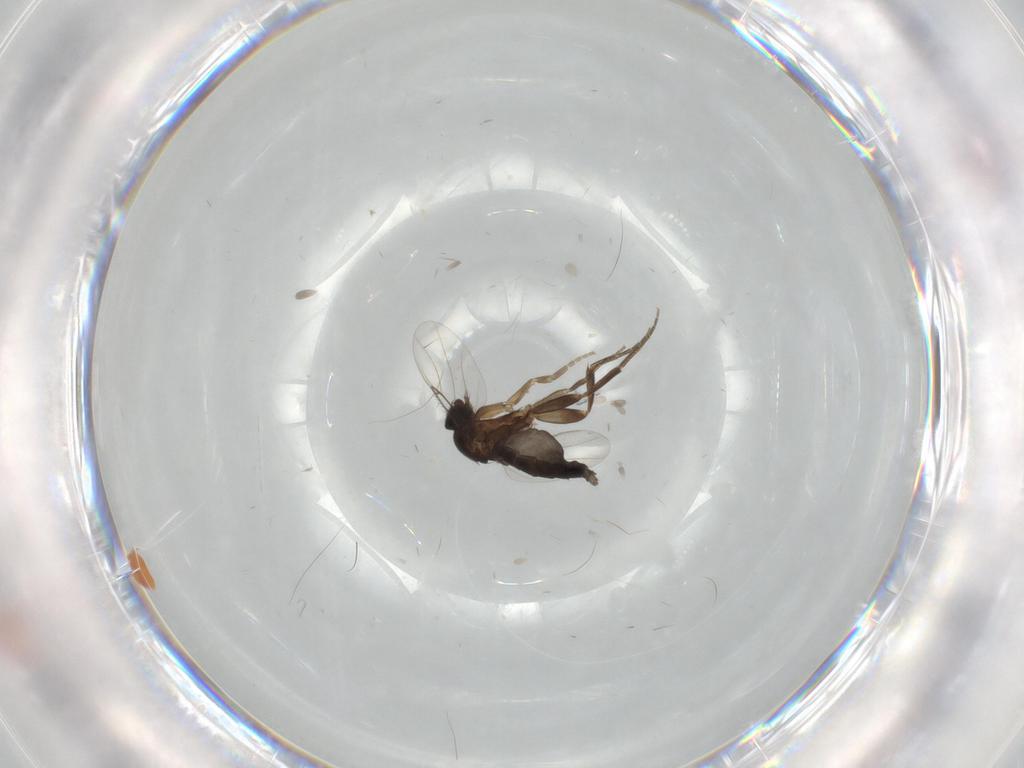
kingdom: Animalia
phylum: Arthropoda
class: Insecta
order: Diptera
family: Phoridae
